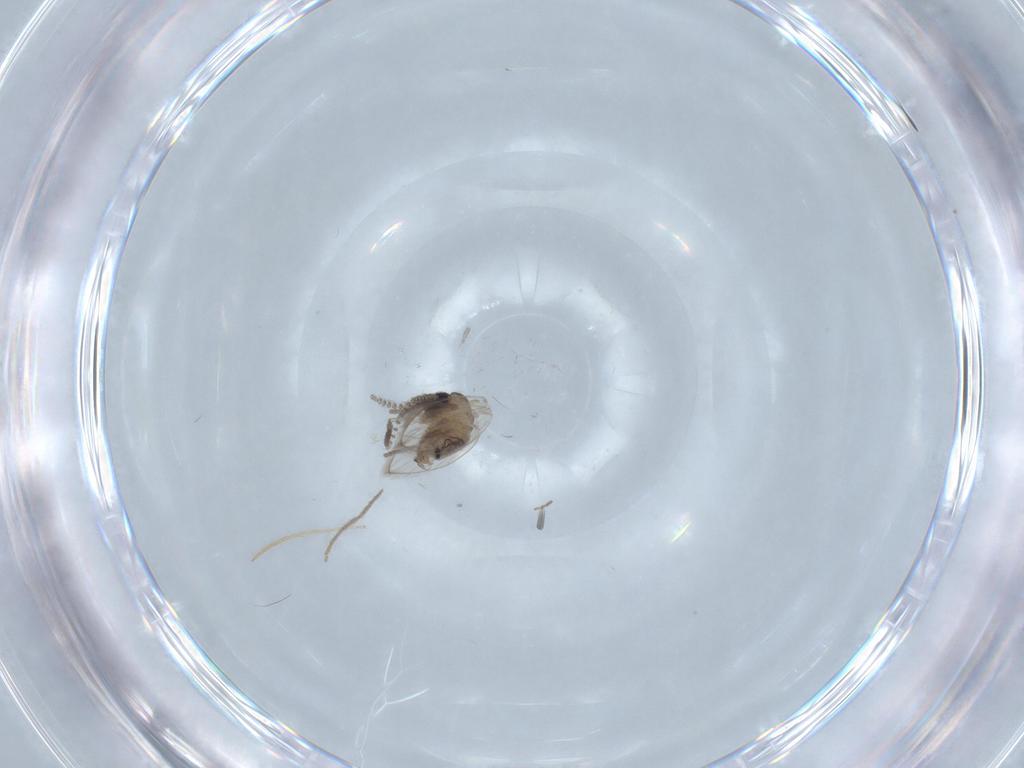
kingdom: Animalia
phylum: Arthropoda
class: Insecta
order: Diptera
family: Psychodidae
